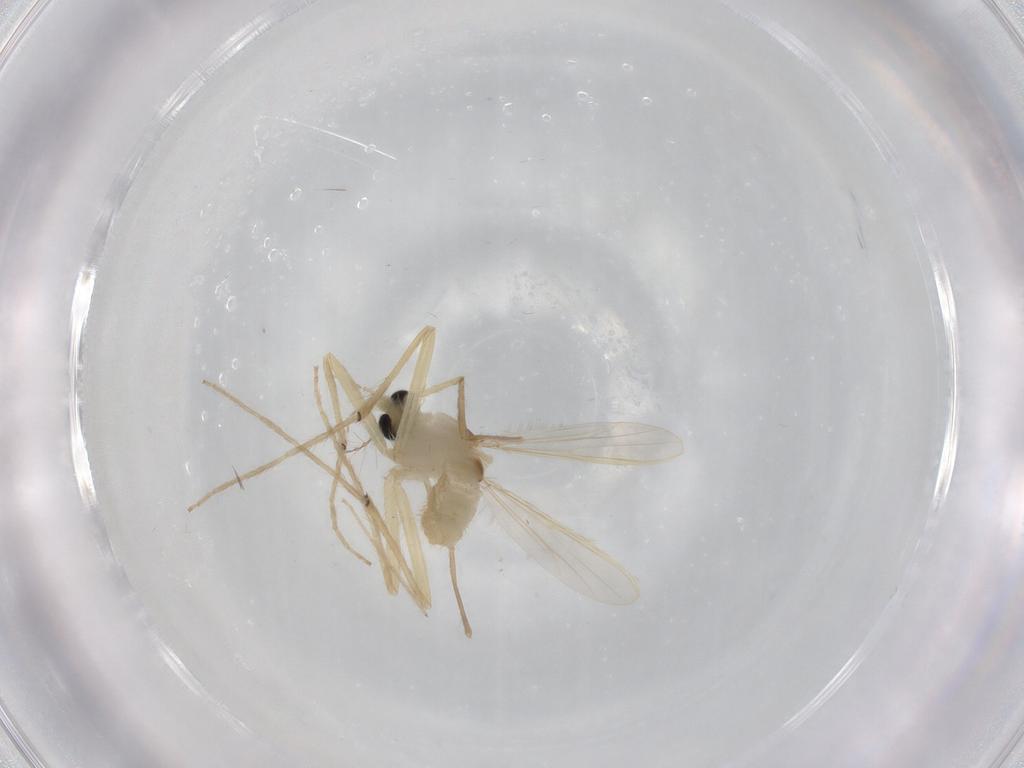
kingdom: Animalia
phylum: Arthropoda
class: Insecta
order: Diptera
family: Chironomidae
